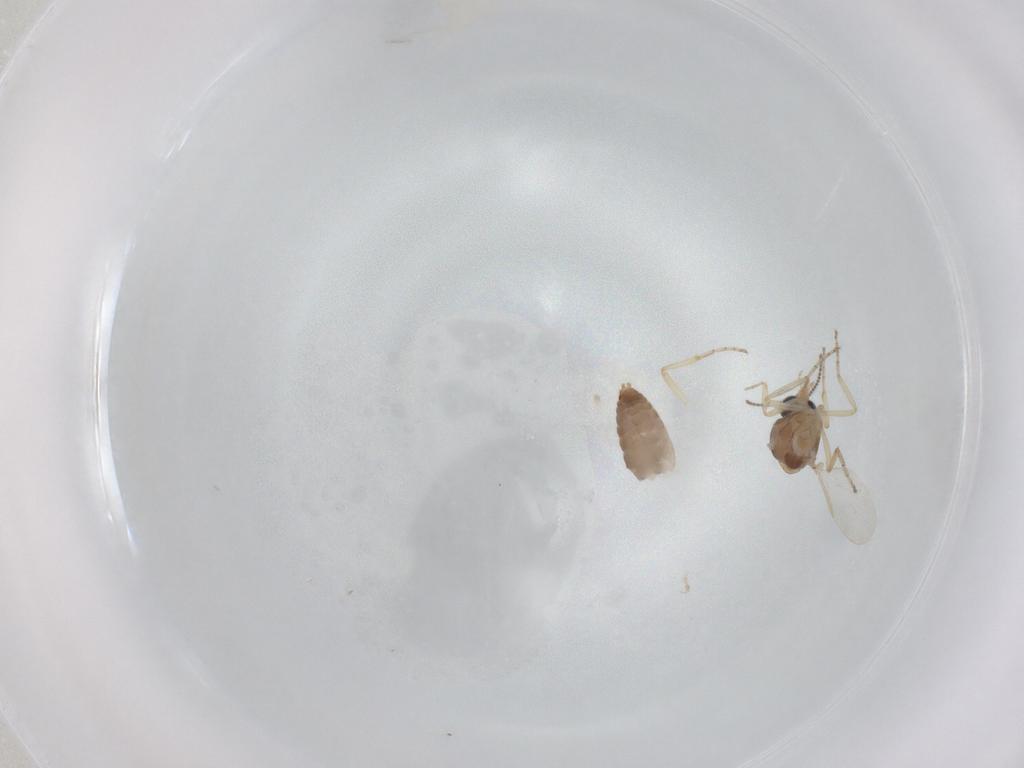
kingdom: Animalia
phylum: Arthropoda
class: Insecta
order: Diptera
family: Ceratopogonidae
